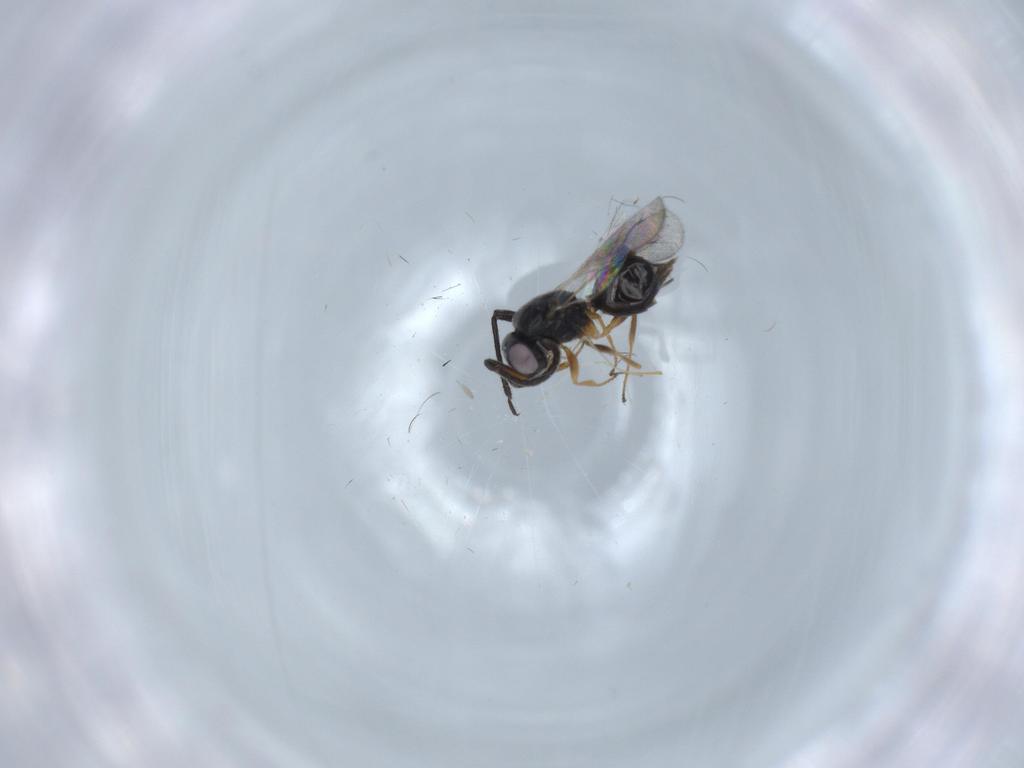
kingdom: Animalia
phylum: Arthropoda
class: Insecta
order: Hymenoptera
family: Megaspilidae
